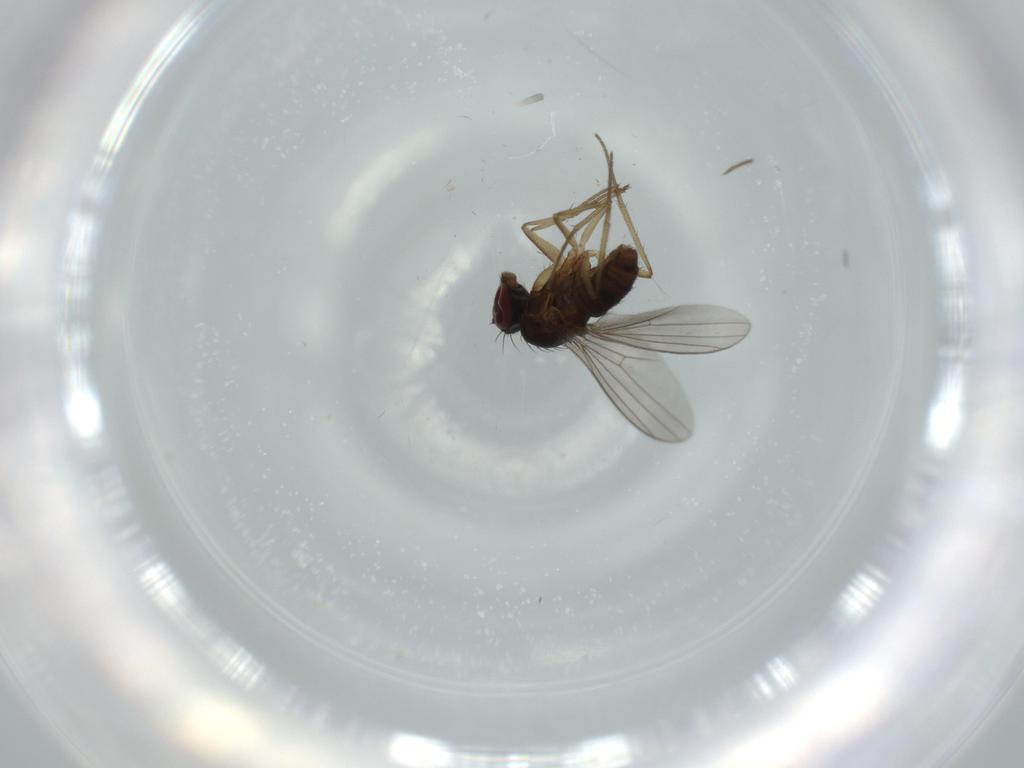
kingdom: Animalia
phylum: Arthropoda
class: Insecta
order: Diptera
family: Dolichopodidae
